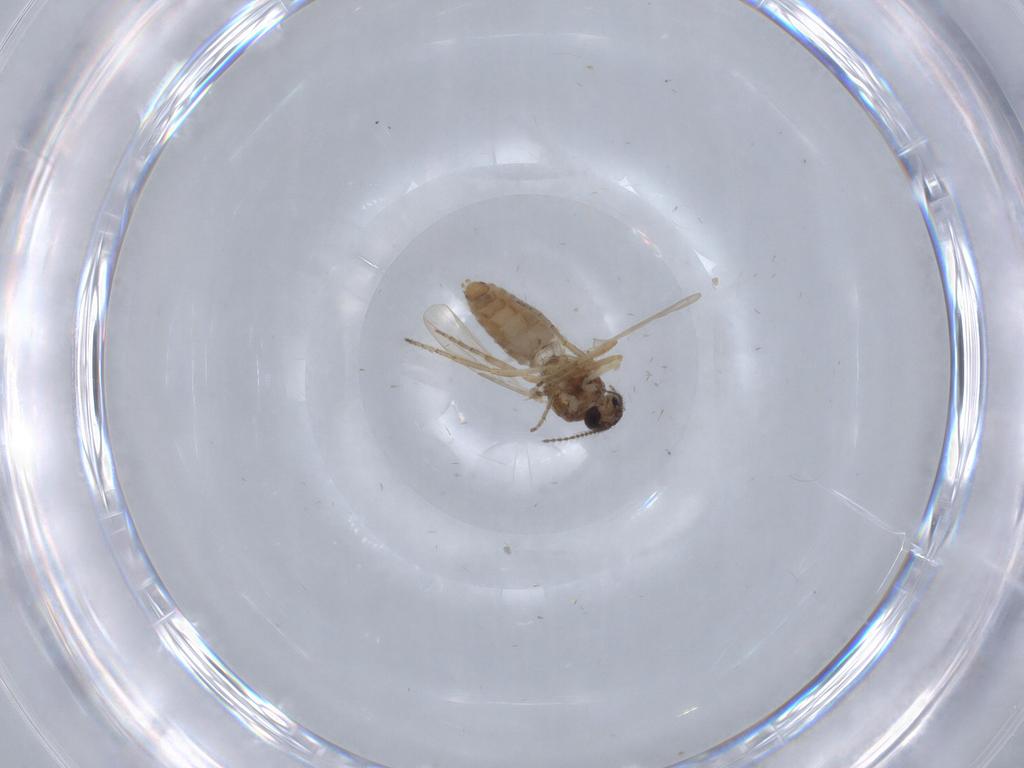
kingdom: Animalia
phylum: Arthropoda
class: Insecta
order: Diptera
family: Ceratopogonidae
